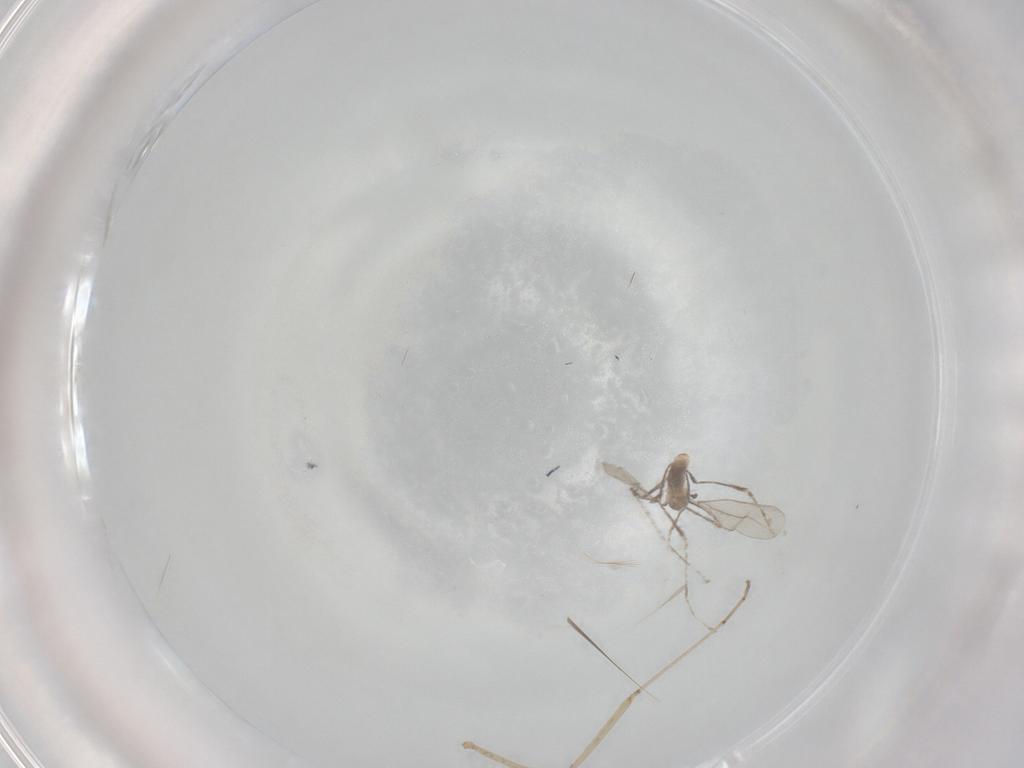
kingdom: Animalia
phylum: Arthropoda
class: Insecta
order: Diptera
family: Cecidomyiidae
